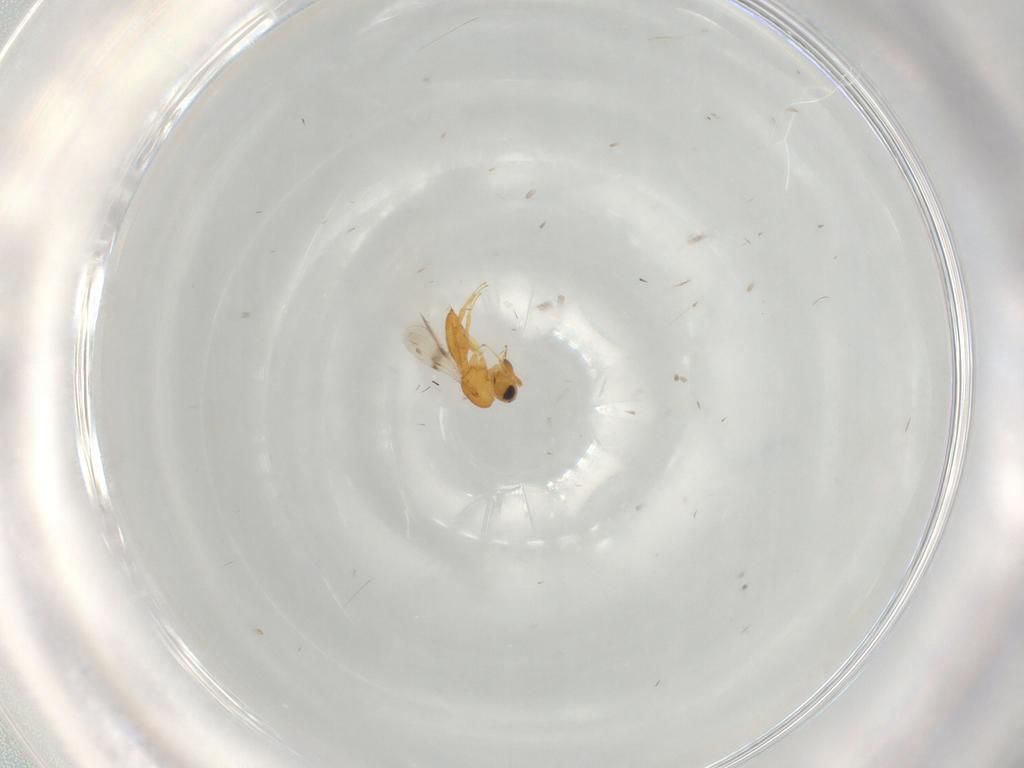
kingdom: Animalia
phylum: Arthropoda
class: Insecta
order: Hymenoptera
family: Scelionidae
